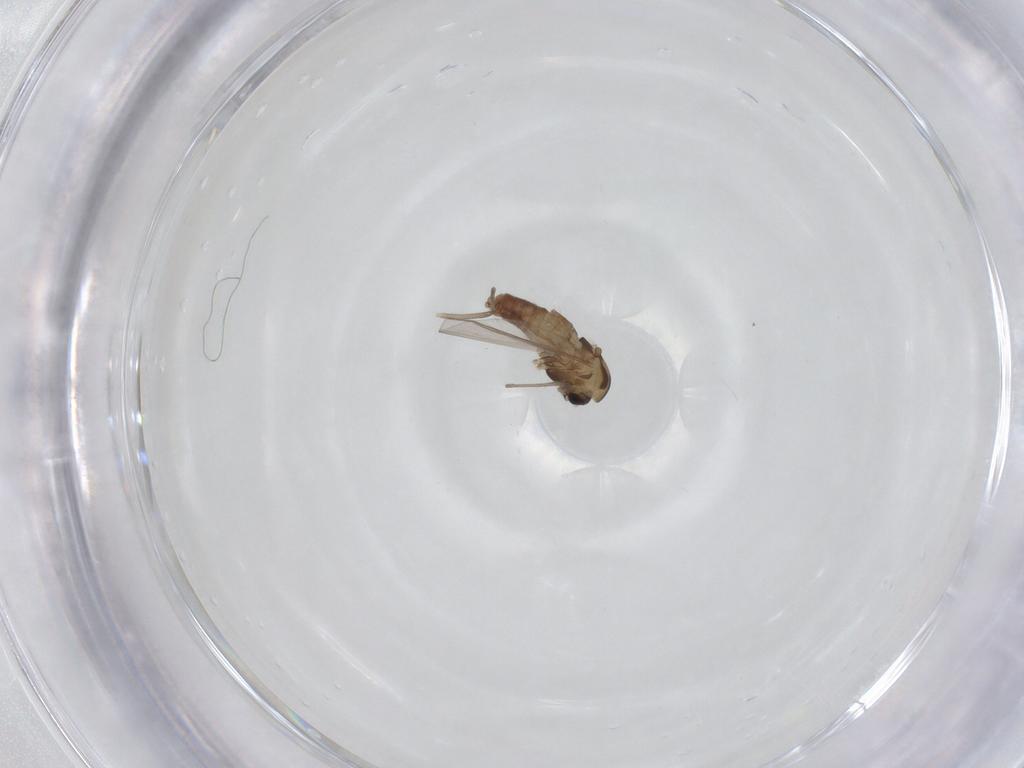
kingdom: Animalia
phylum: Arthropoda
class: Insecta
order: Diptera
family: Chironomidae
